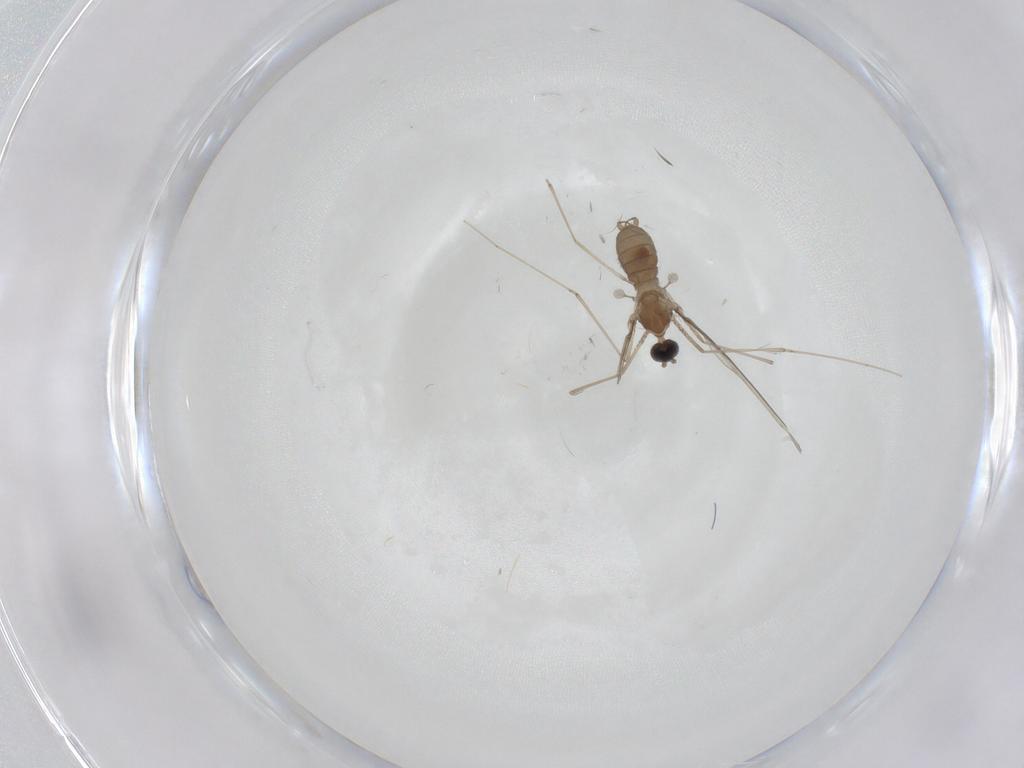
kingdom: Animalia
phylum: Arthropoda
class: Insecta
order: Diptera
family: Cecidomyiidae
